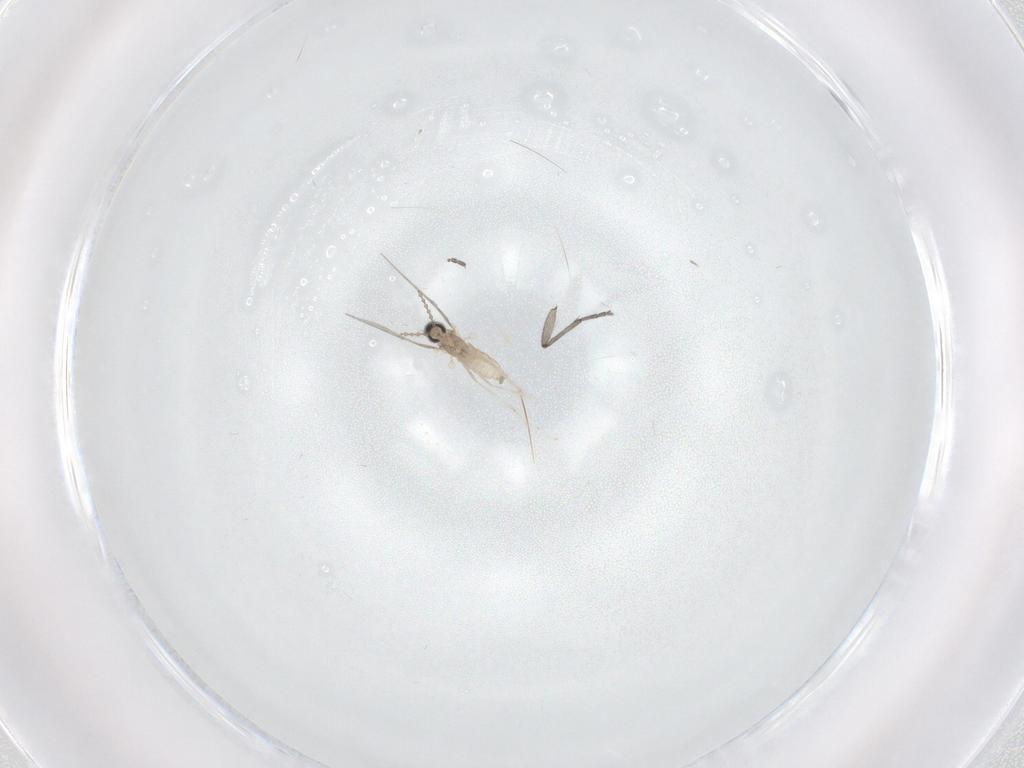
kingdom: Animalia
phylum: Arthropoda
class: Insecta
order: Diptera
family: Sciaridae
